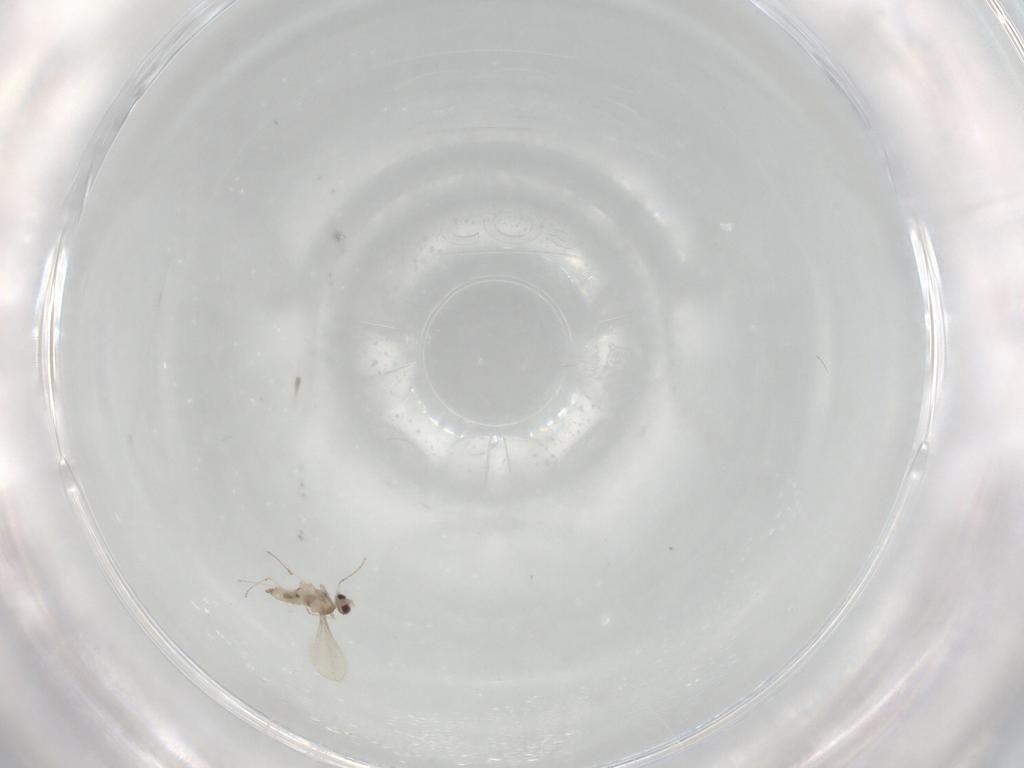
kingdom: Animalia
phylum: Arthropoda
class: Insecta
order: Diptera
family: Cecidomyiidae
